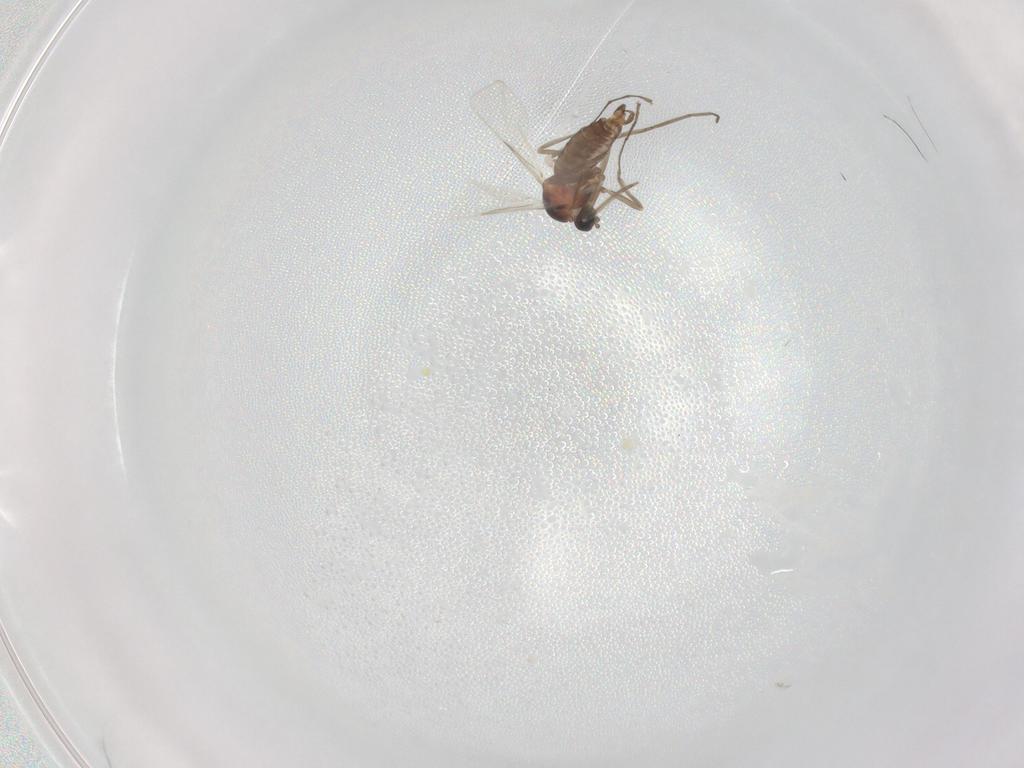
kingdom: Animalia
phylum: Arthropoda
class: Insecta
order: Diptera
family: Cecidomyiidae
